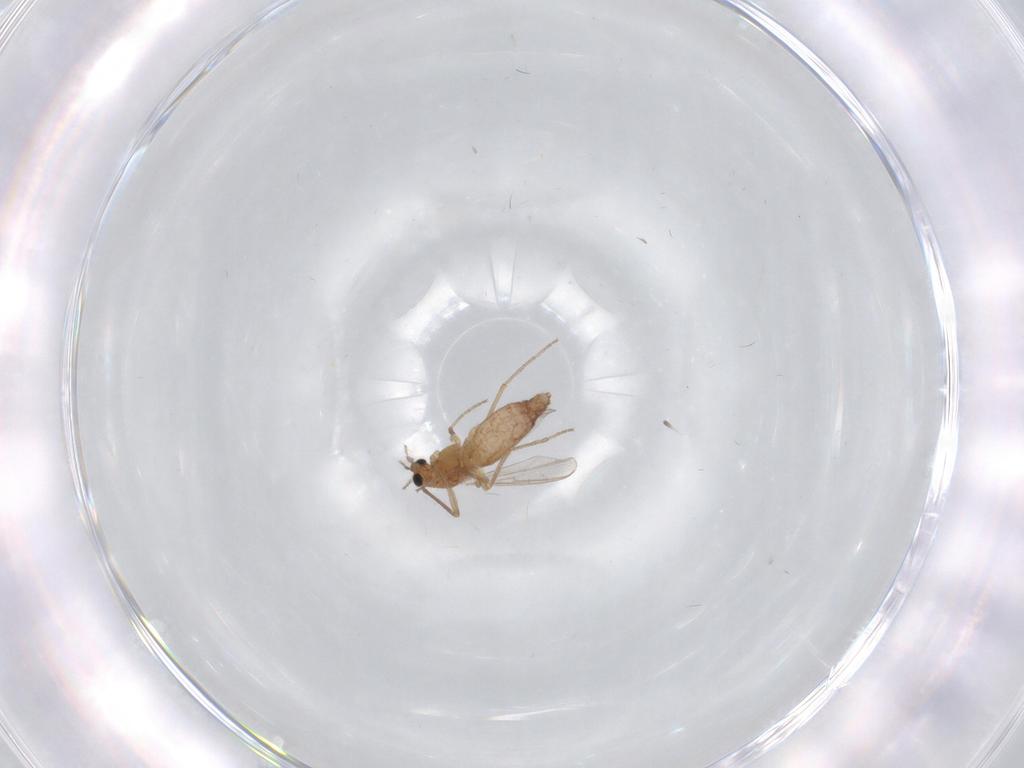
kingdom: Animalia
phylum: Arthropoda
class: Insecta
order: Diptera
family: Chironomidae
